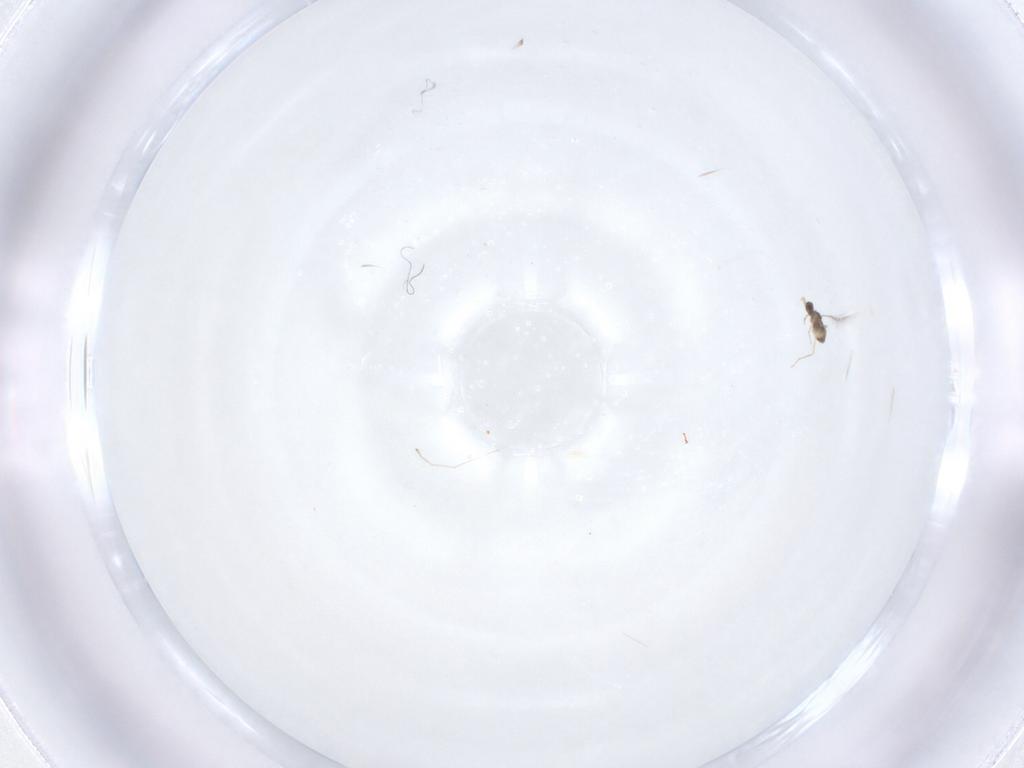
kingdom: Animalia
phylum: Arthropoda
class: Insecta
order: Hymenoptera
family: Mymaridae
